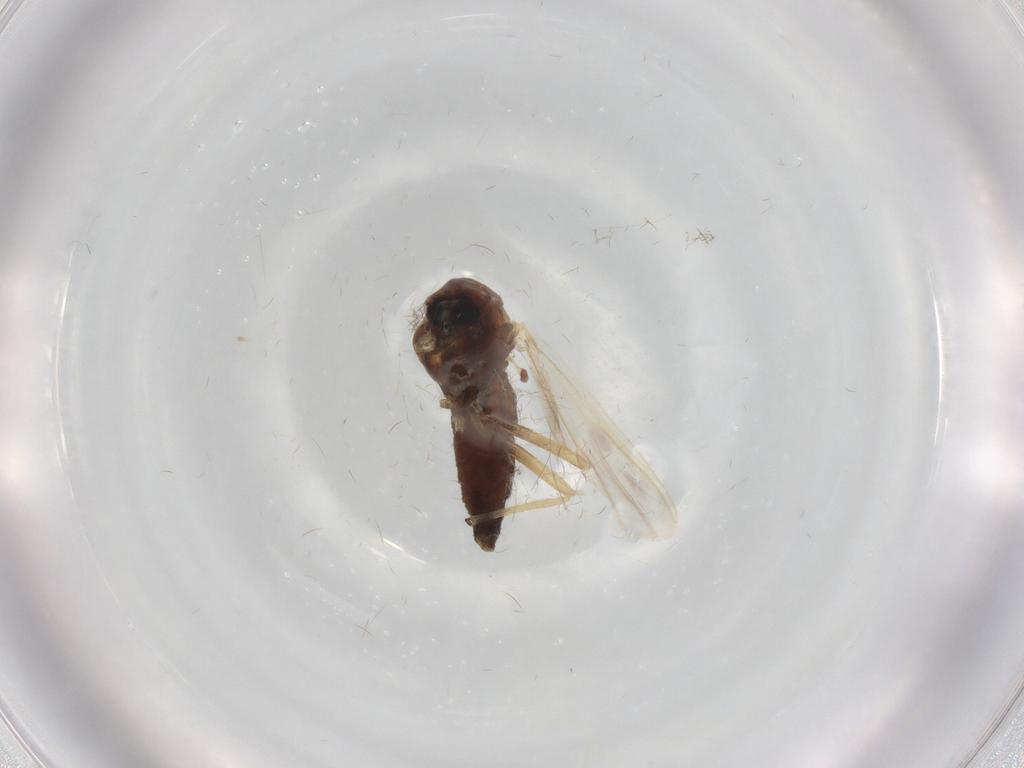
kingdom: Animalia
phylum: Arthropoda
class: Insecta
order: Diptera
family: Chironomidae
